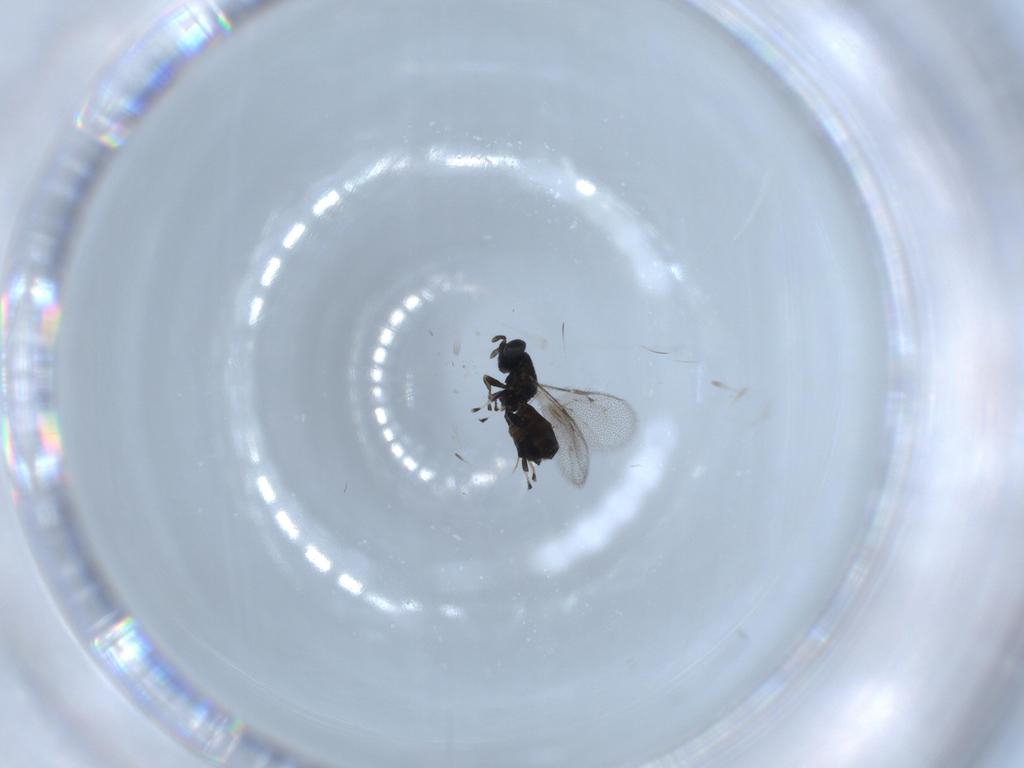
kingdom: Animalia
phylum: Arthropoda
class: Insecta
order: Hymenoptera
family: Eulophidae
